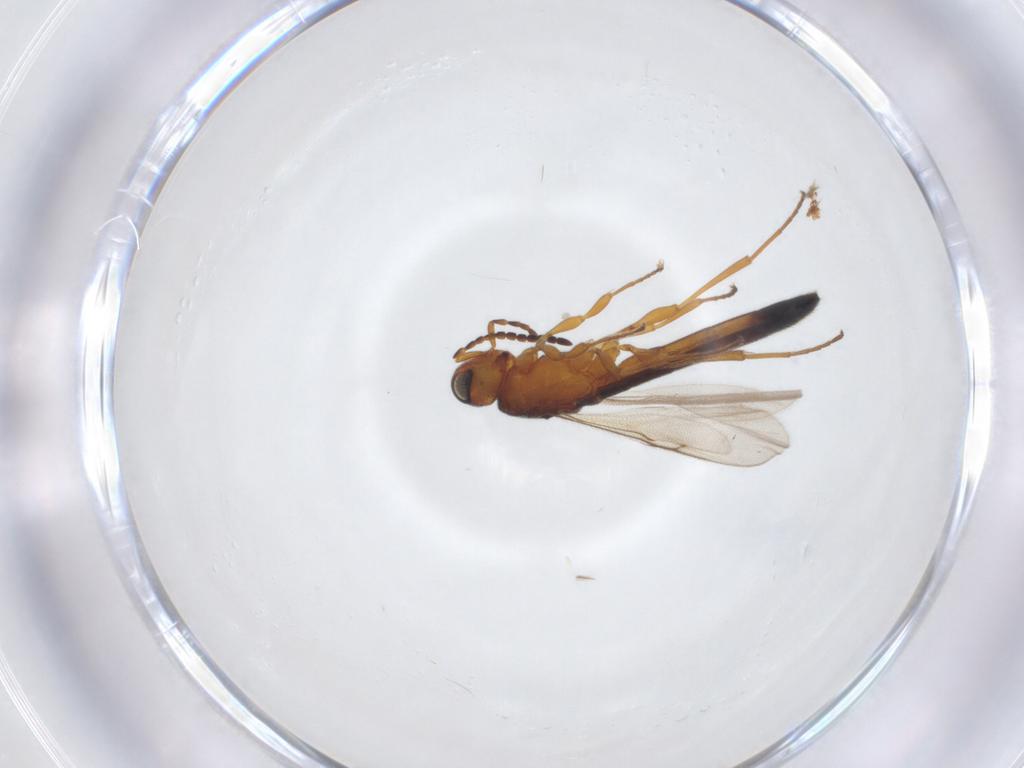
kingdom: Animalia
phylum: Arthropoda
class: Insecta
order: Hymenoptera
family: Scelionidae
